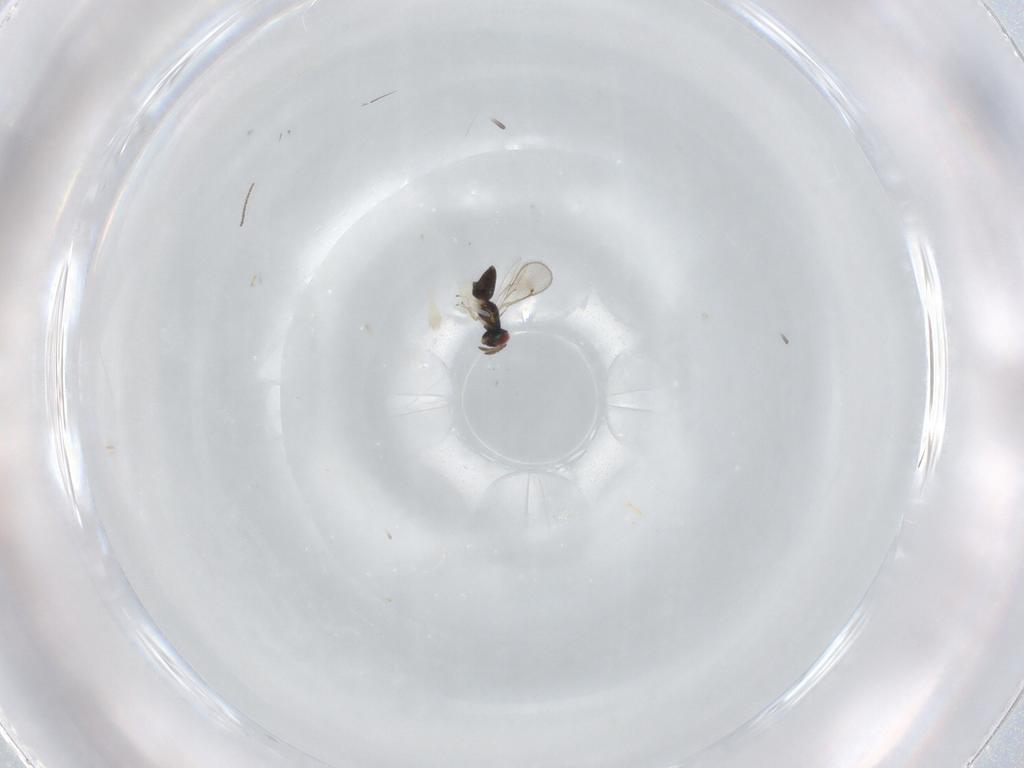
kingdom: Animalia
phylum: Arthropoda
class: Insecta
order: Hymenoptera
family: Eulophidae
